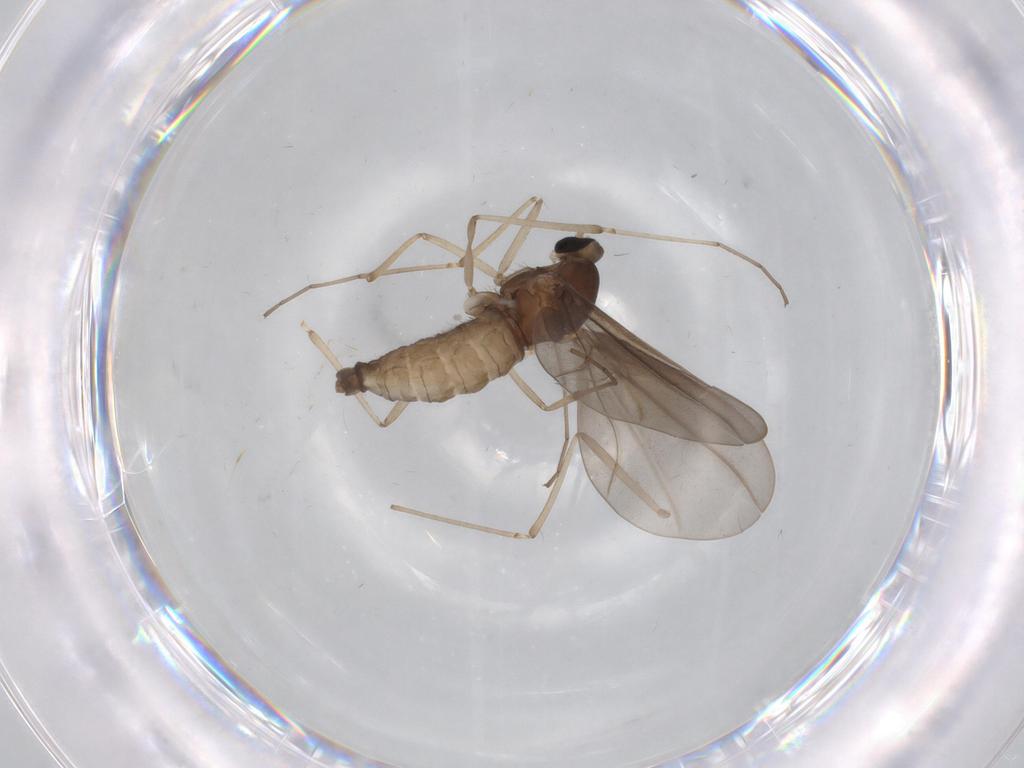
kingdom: Animalia
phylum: Arthropoda
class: Insecta
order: Diptera
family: Cecidomyiidae
